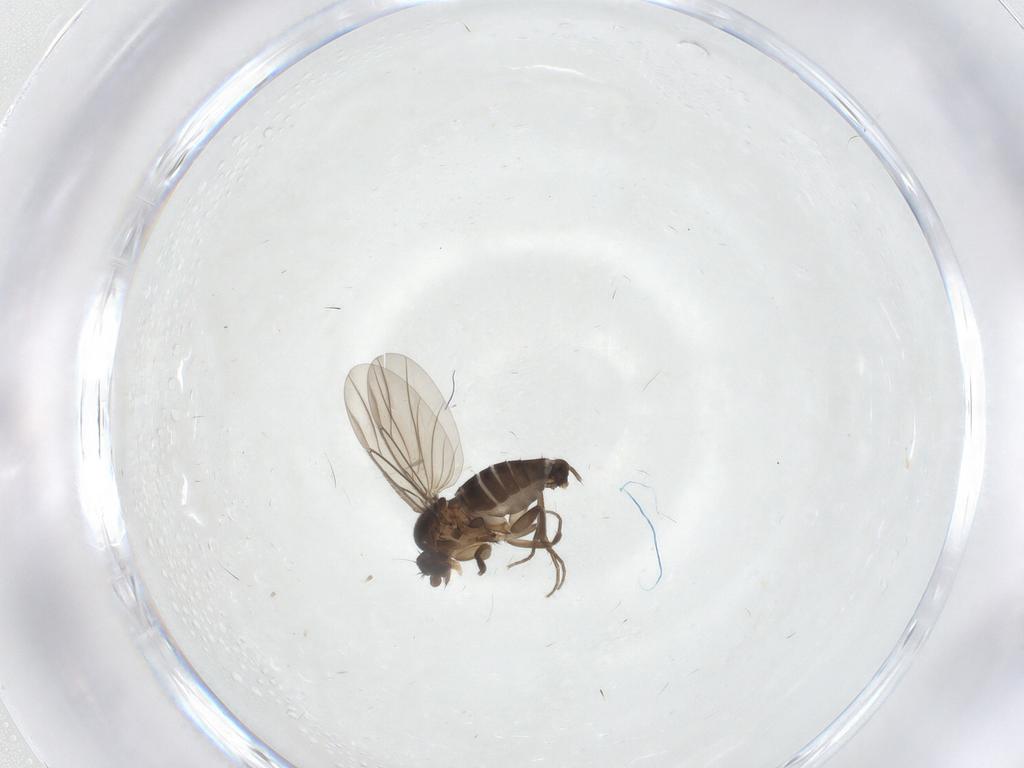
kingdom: Animalia
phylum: Arthropoda
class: Insecta
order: Diptera
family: Phoridae
